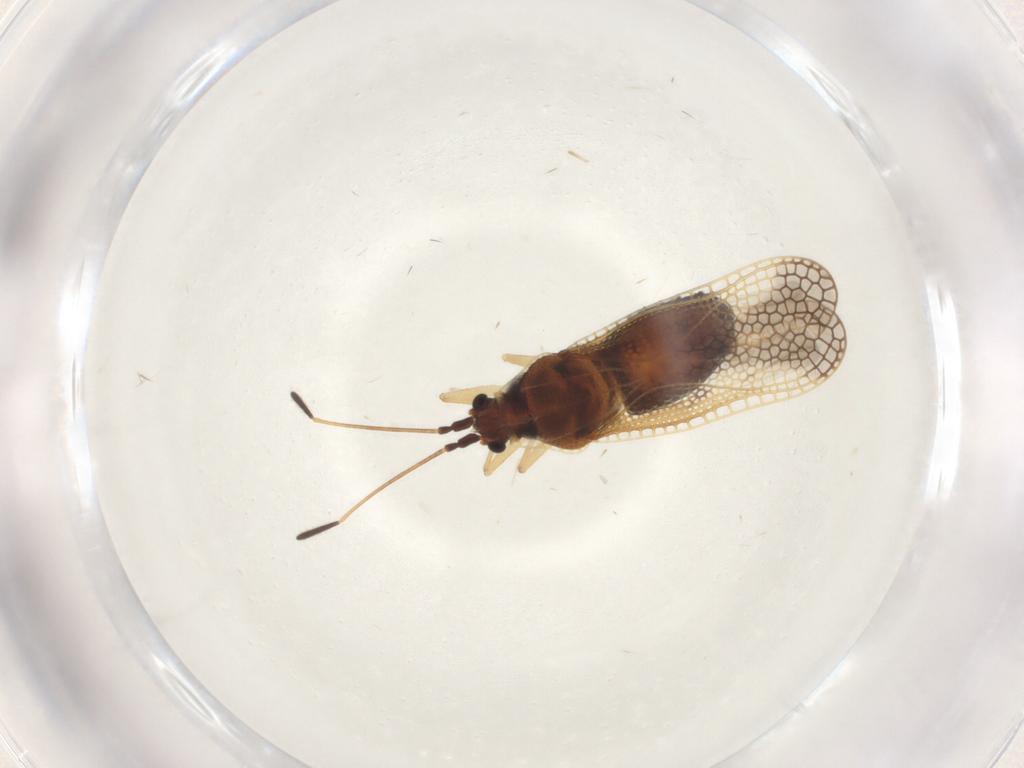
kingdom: Animalia
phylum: Arthropoda
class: Insecta
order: Hemiptera
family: Tingidae
